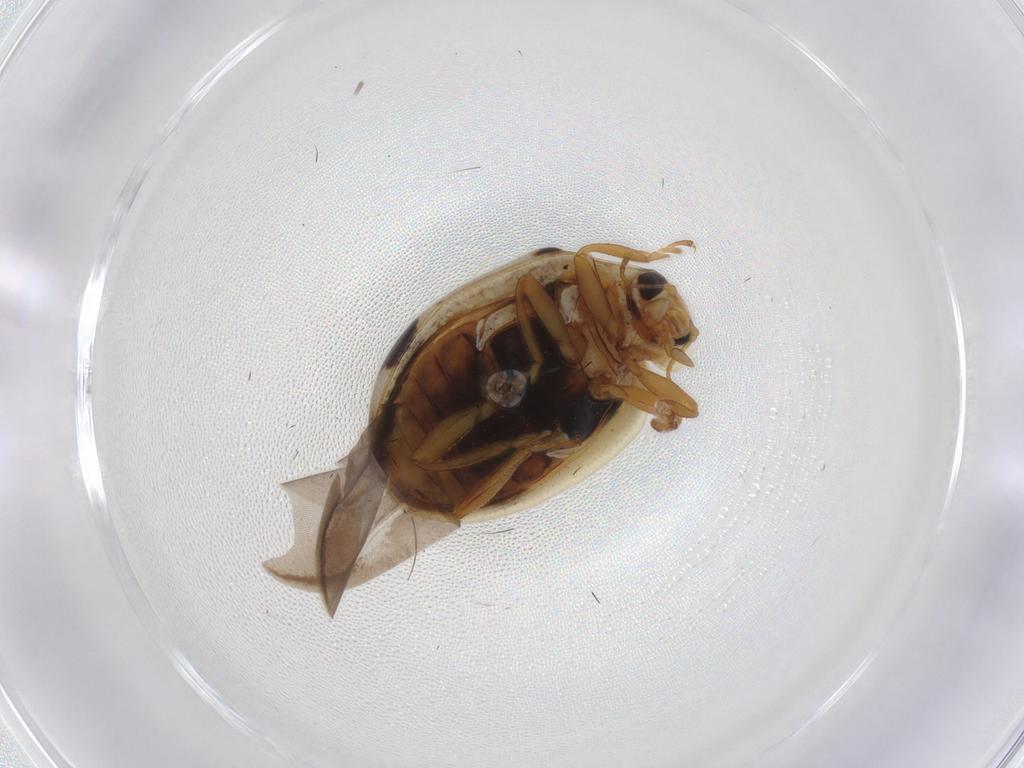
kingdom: Animalia
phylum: Arthropoda
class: Insecta
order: Coleoptera
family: Coccinellidae
